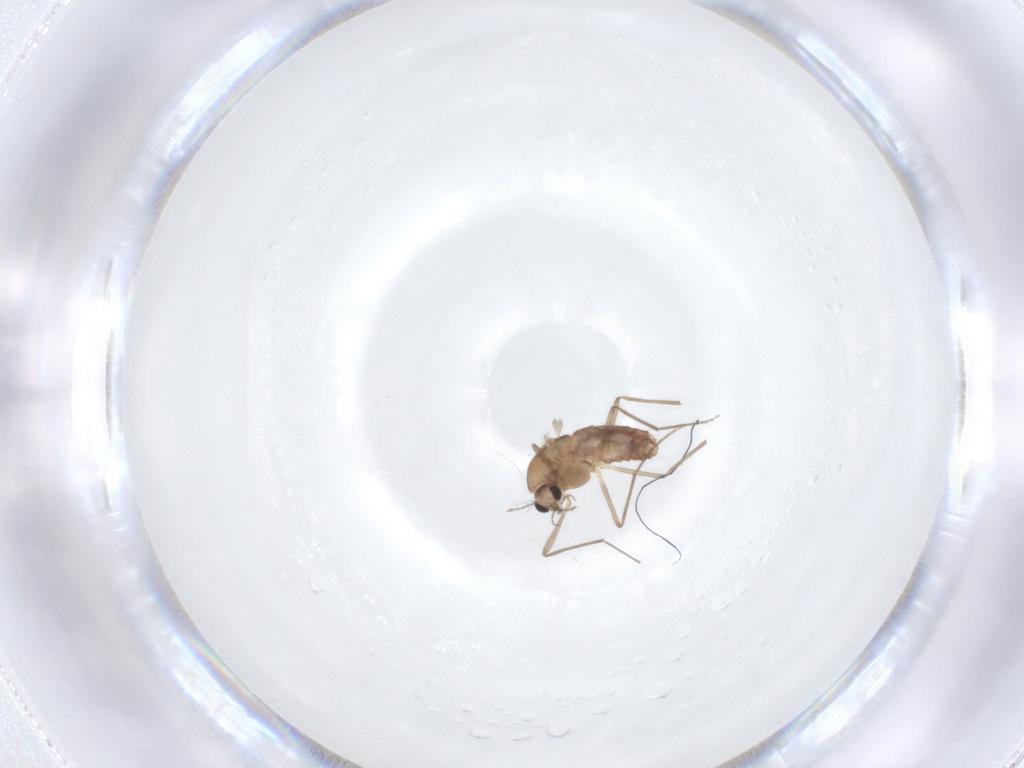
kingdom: Animalia
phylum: Arthropoda
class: Insecta
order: Diptera
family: Chironomidae
